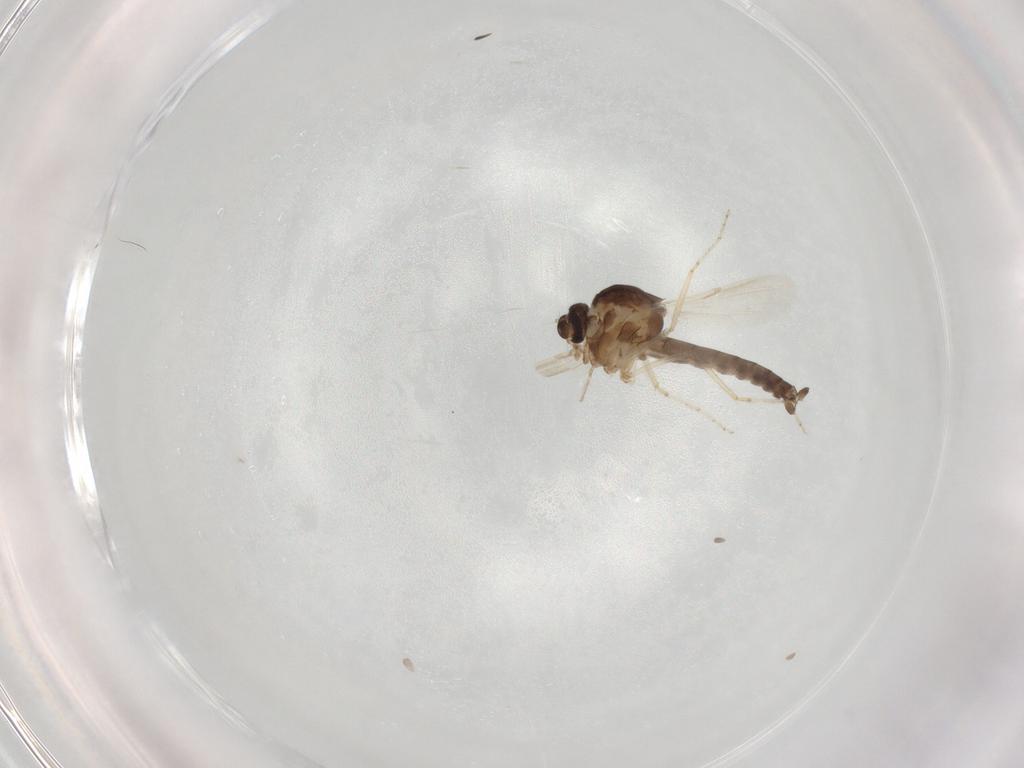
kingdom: Animalia
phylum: Arthropoda
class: Insecta
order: Diptera
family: Ceratopogonidae
